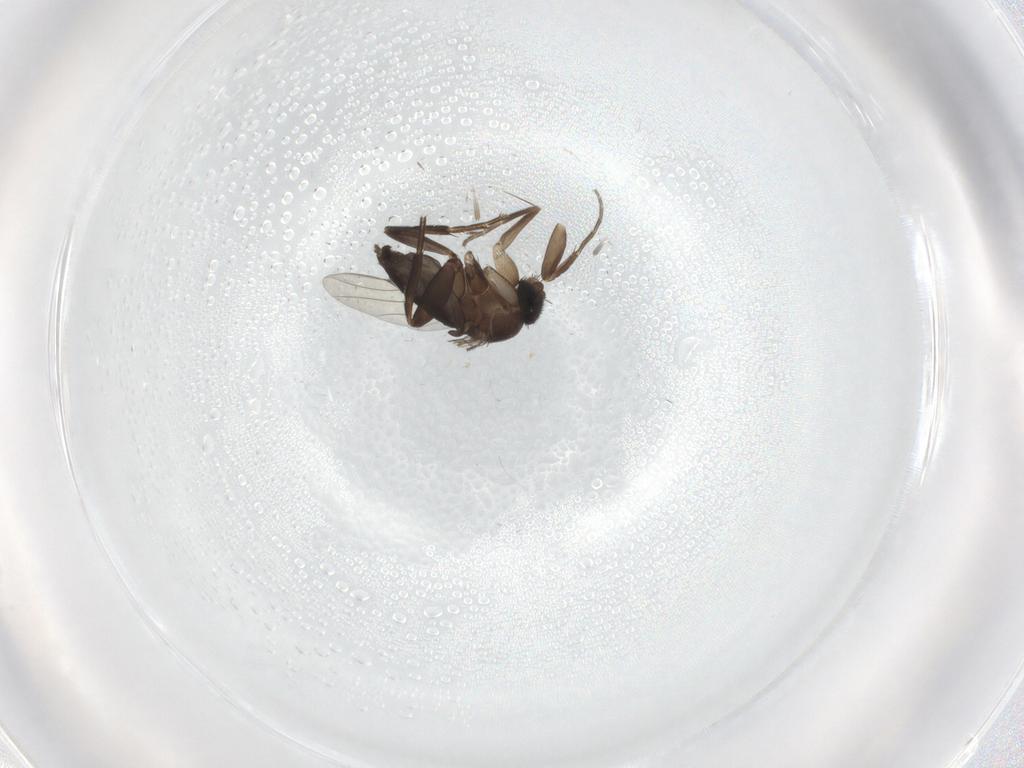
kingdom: Animalia
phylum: Arthropoda
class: Insecta
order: Diptera
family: Phoridae
